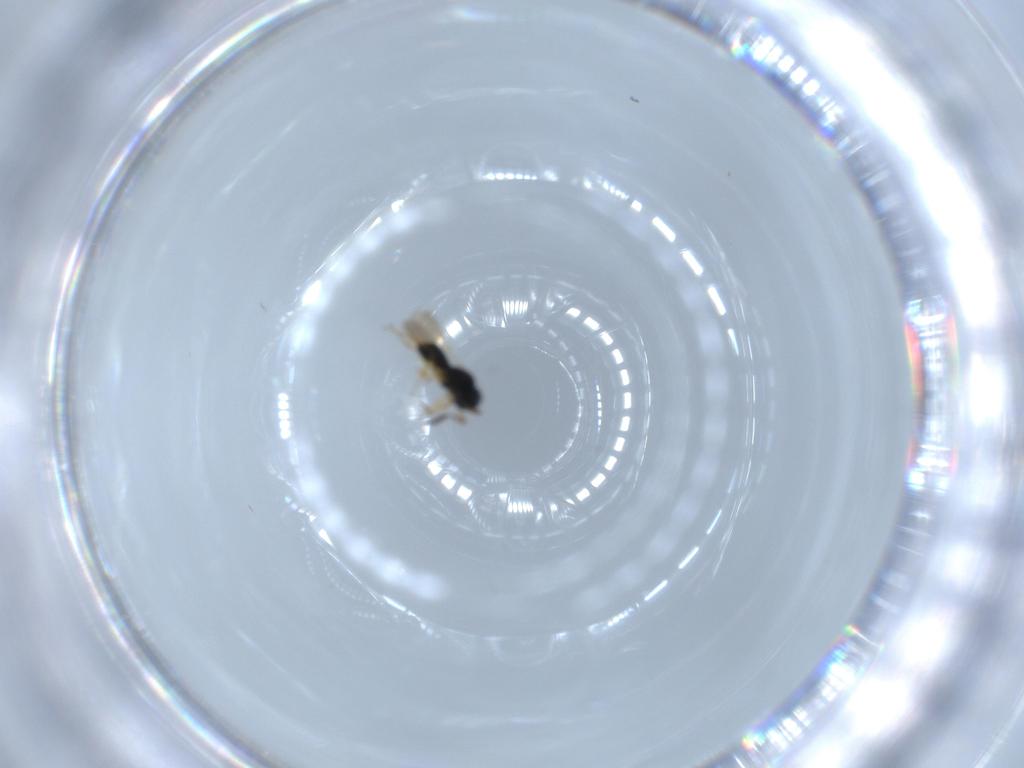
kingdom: Animalia
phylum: Arthropoda
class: Insecta
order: Hymenoptera
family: Scelionidae
